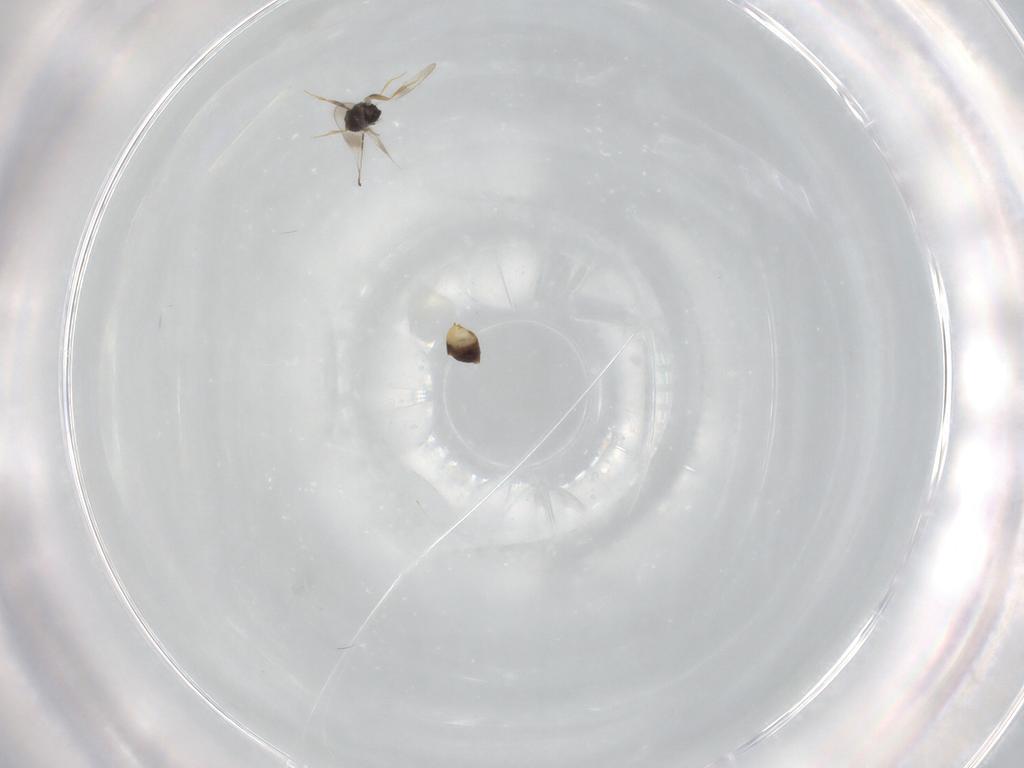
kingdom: Animalia
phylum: Arthropoda
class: Insecta
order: Hymenoptera
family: Ceraphronidae
